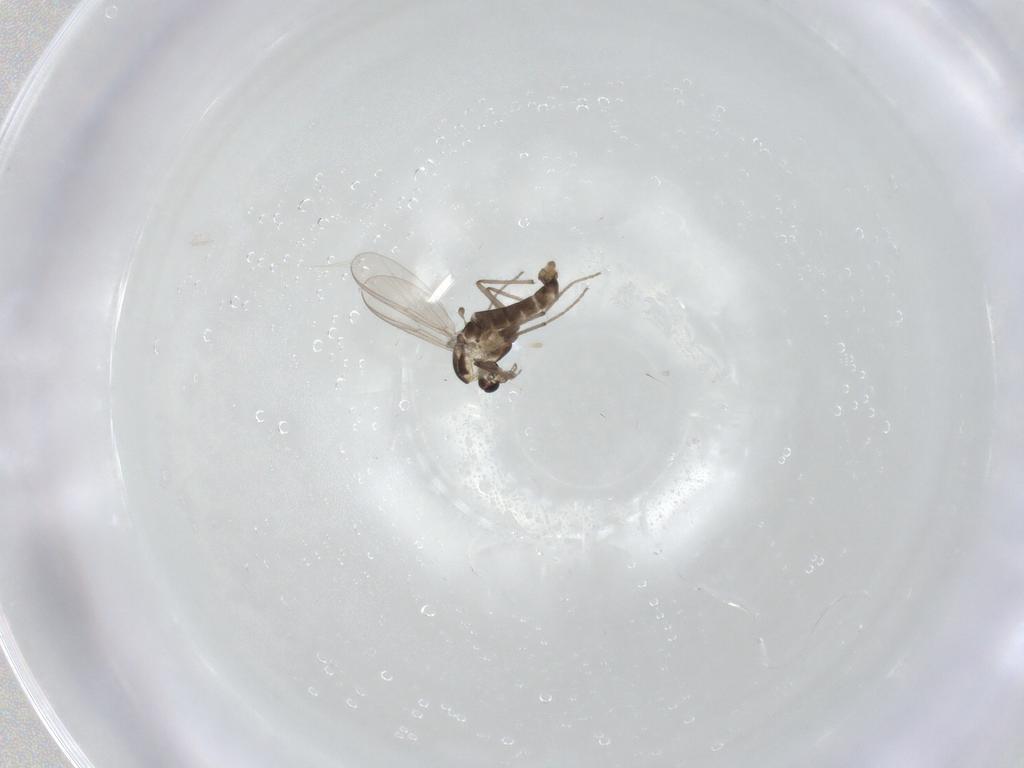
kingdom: Animalia
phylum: Arthropoda
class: Insecta
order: Diptera
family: Chironomidae
